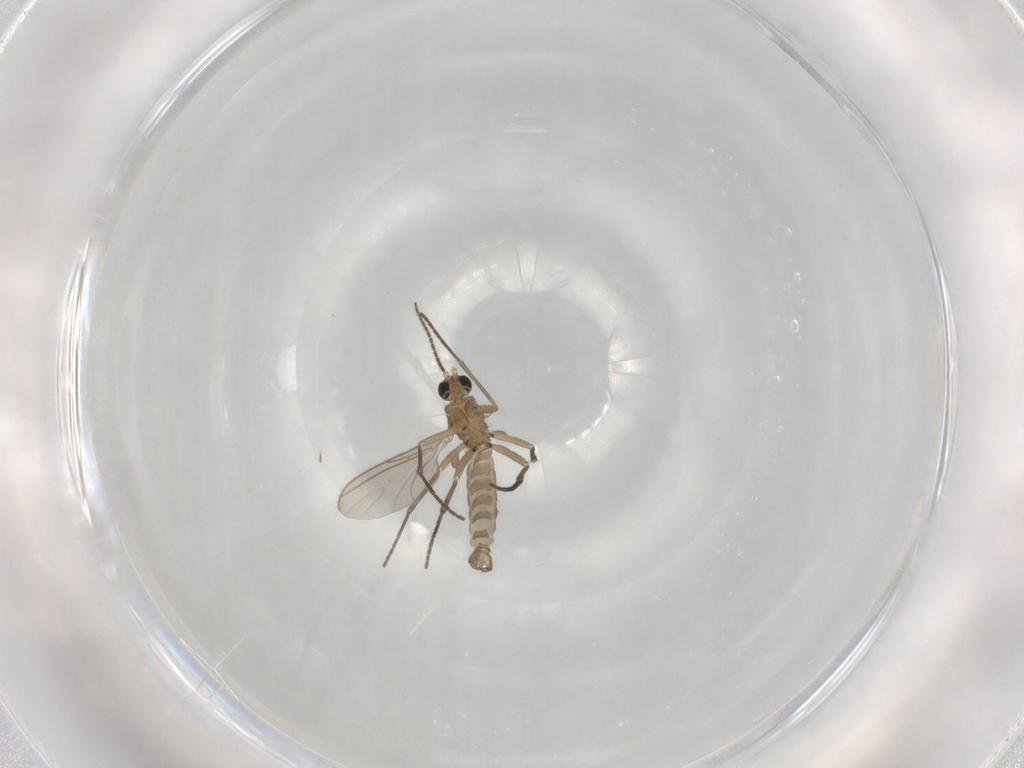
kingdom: Animalia
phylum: Arthropoda
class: Insecta
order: Diptera
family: Sciaridae
